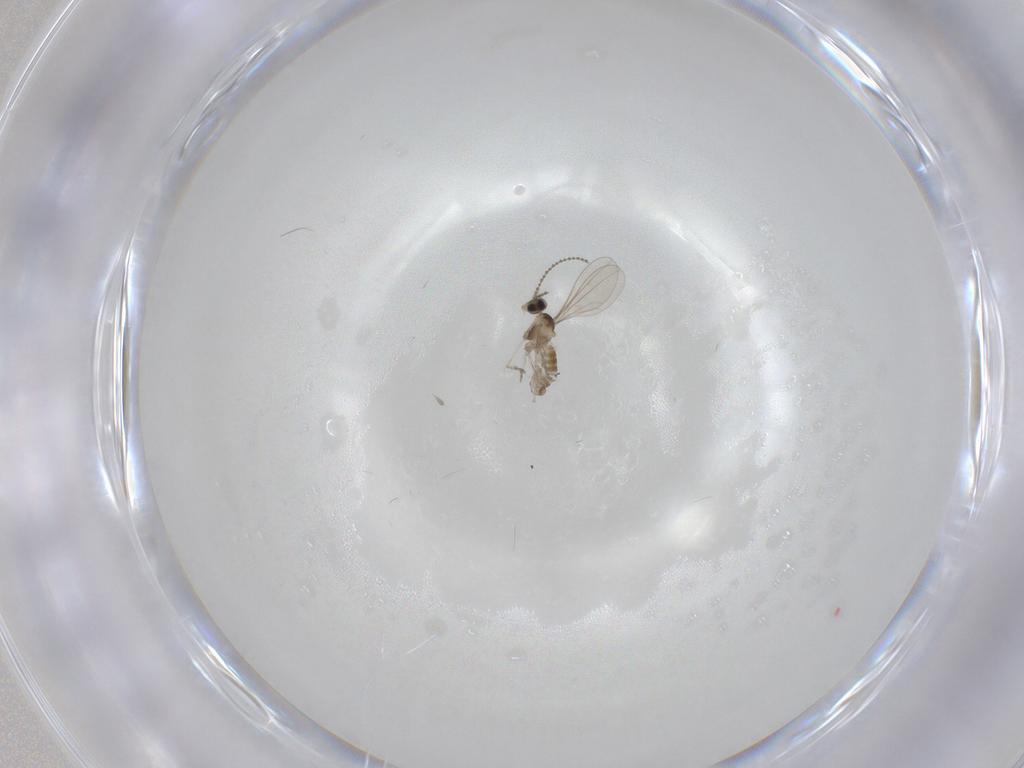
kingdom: Animalia
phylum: Arthropoda
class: Insecta
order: Diptera
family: Cecidomyiidae
